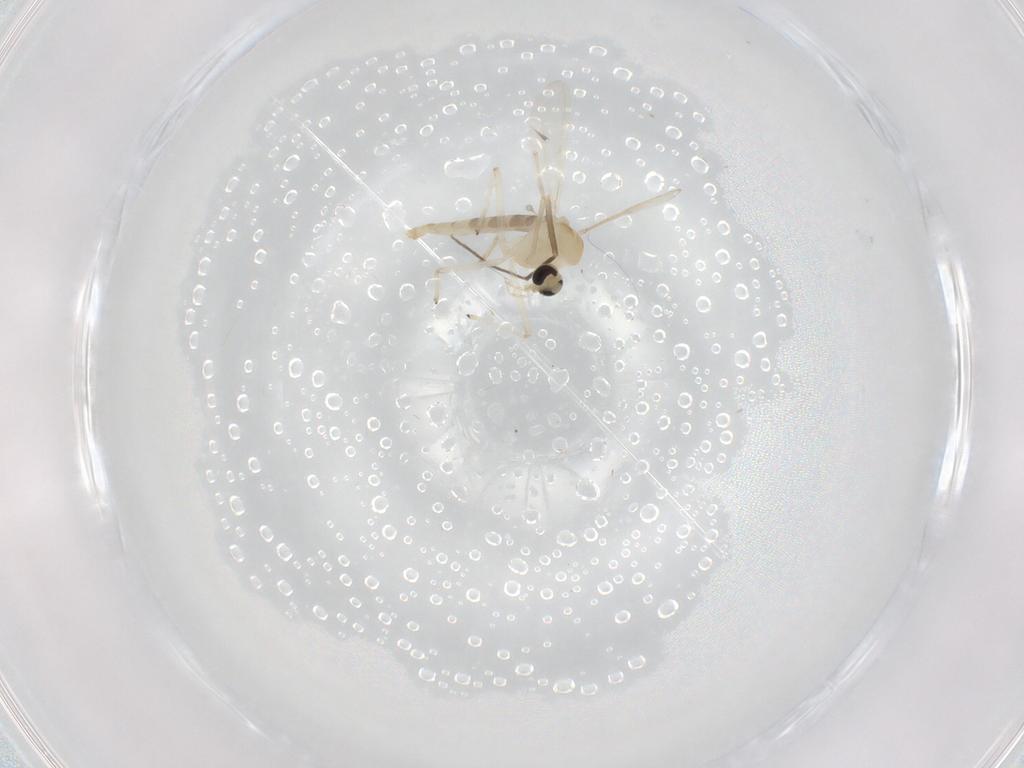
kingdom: Animalia
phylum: Arthropoda
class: Insecta
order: Diptera
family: Chironomidae
